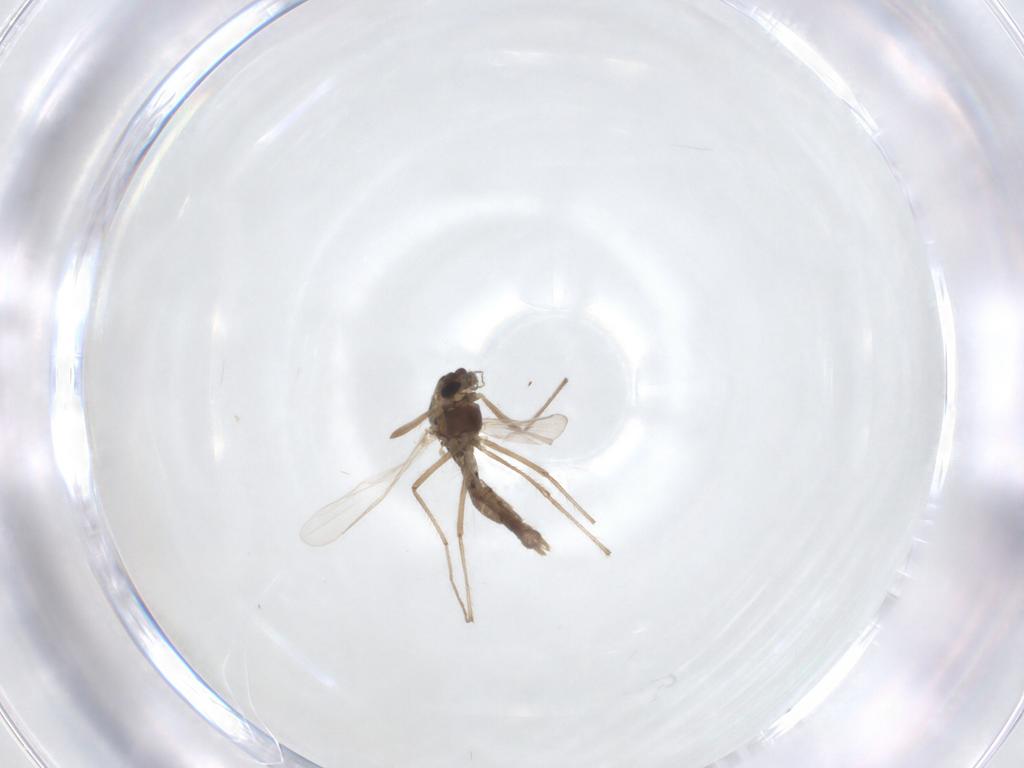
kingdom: Animalia
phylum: Arthropoda
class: Insecta
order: Diptera
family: Chironomidae
